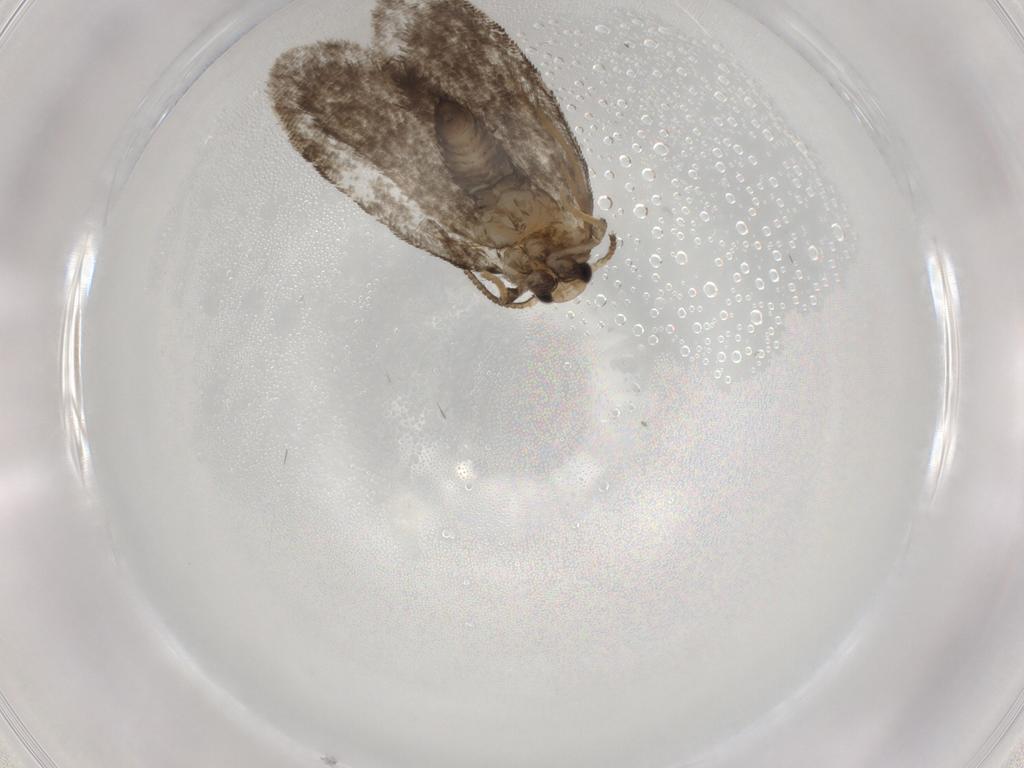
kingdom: Animalia
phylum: Arthropoda
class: Insecta
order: Lepidoptera
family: Psychidae
